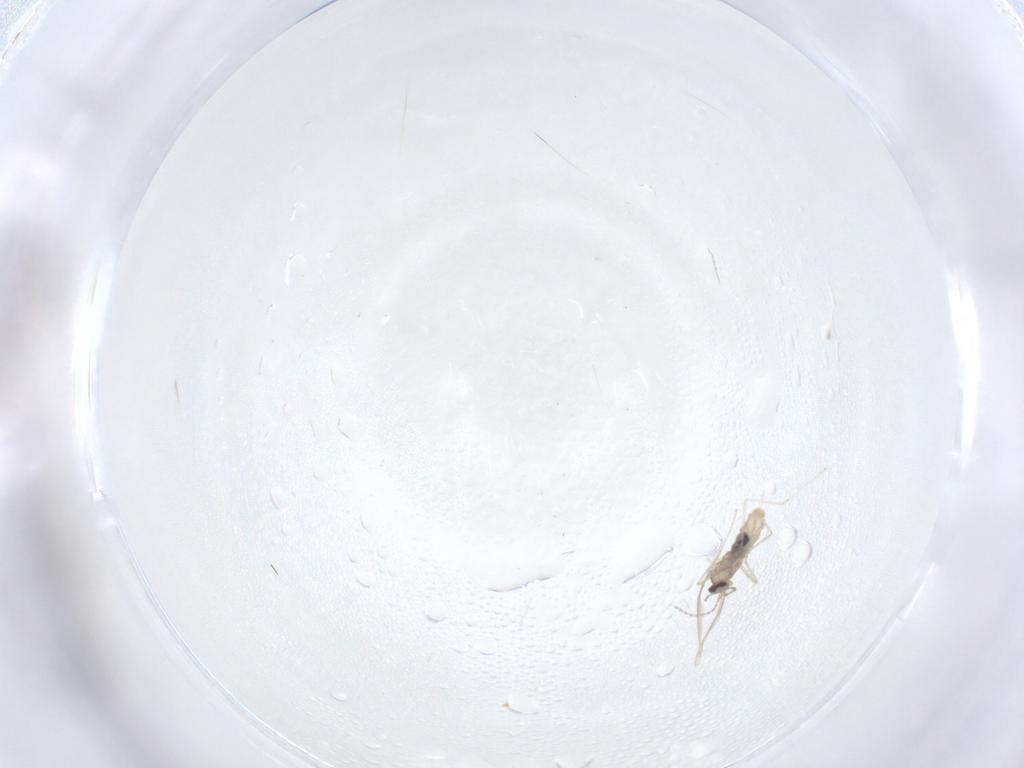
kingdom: Animalia
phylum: Arthropoda
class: Insecta
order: Diptera
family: Cecidomyiidae
